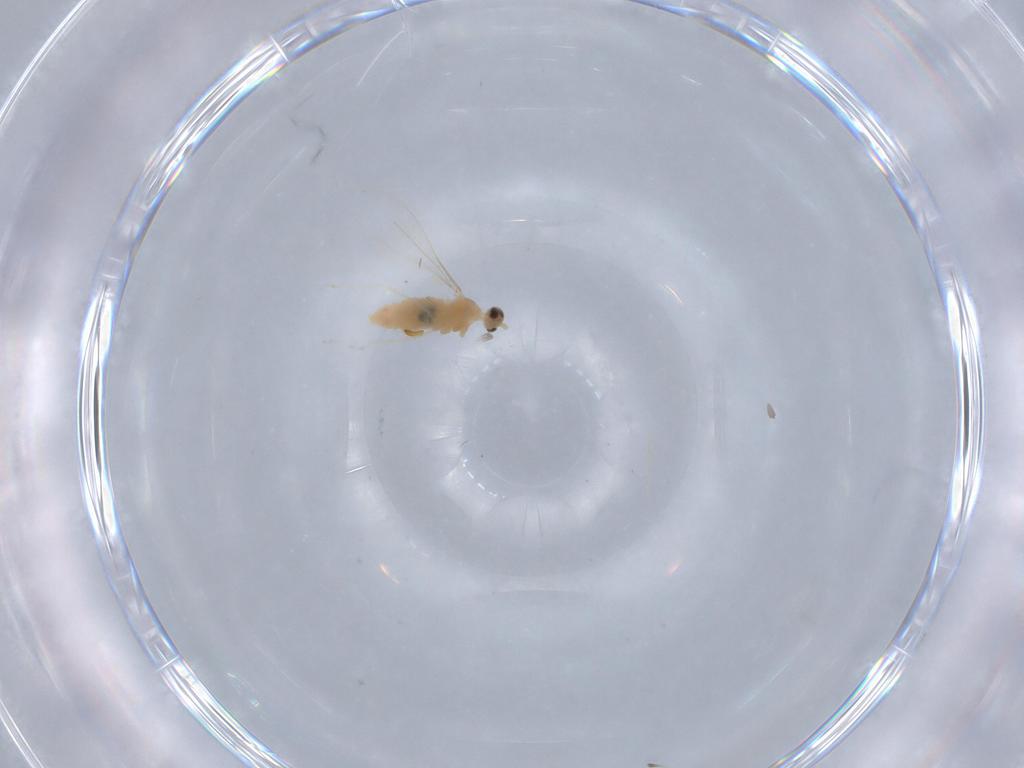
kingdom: Animalia
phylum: Arthropoda
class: Insecta
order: Diptera
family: Cecidomyiidae
